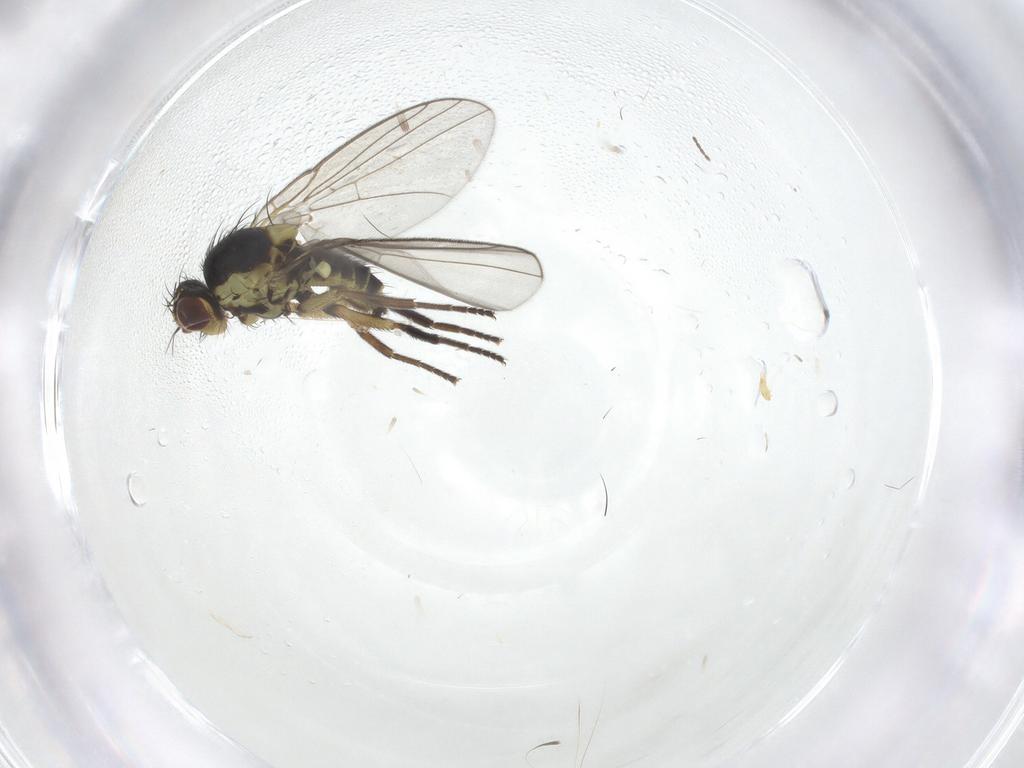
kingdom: Animalia
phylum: Arthropoda
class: Insecta
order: Diptera
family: Agromyzidae
